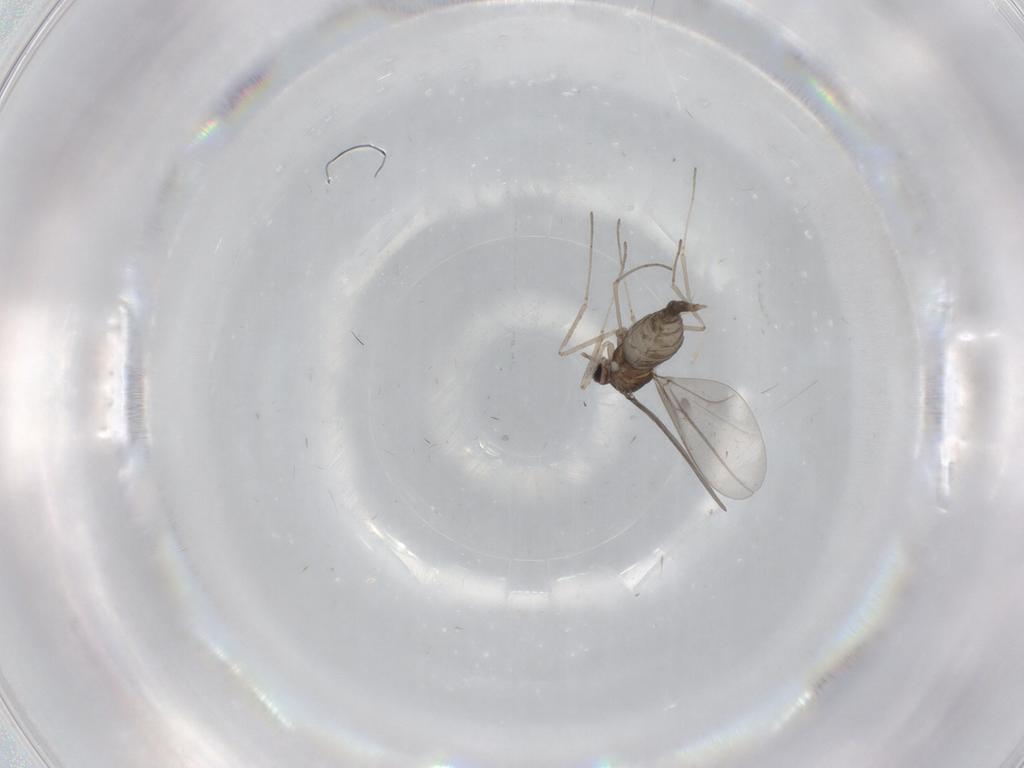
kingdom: Animalia
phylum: Arthropoda
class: Insecta
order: Diptera
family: Cecidomyiidae
